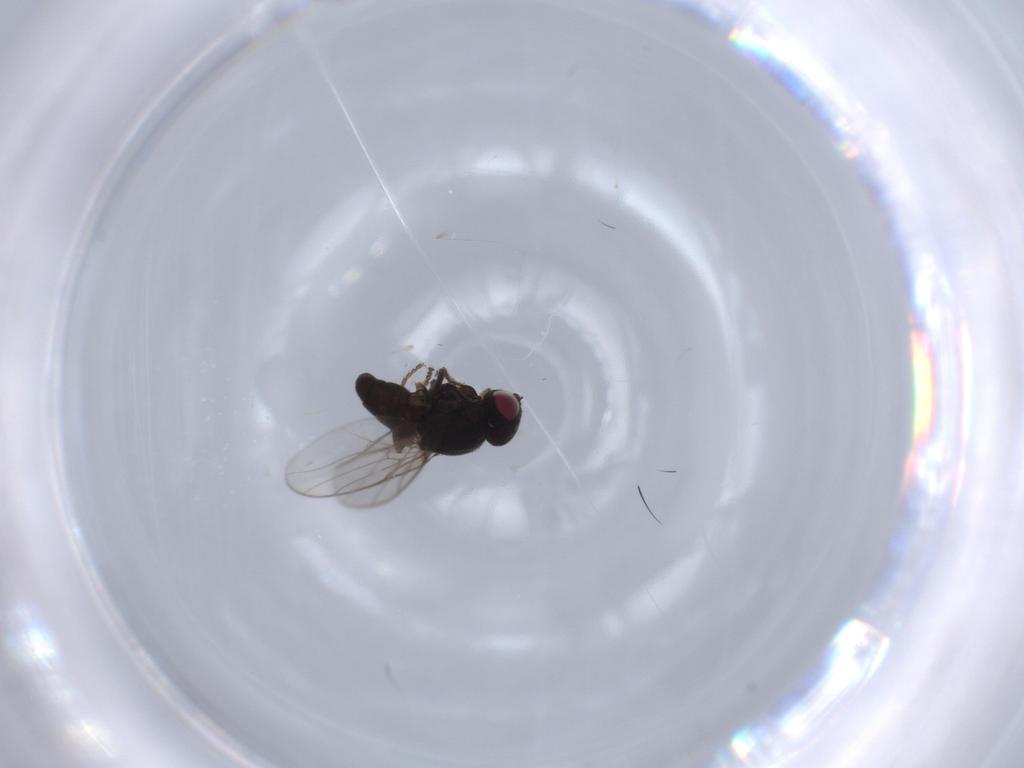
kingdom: Animalia
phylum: Arthropoda
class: Insecta
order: Diptera
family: Chloropidae
